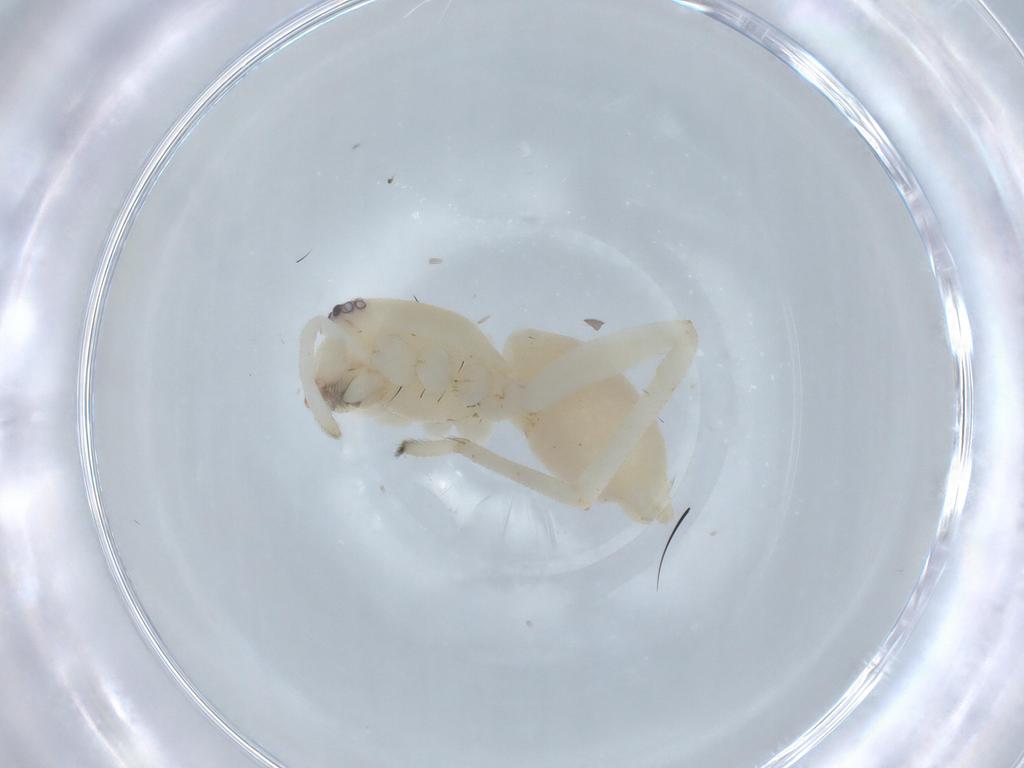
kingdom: Animalia
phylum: Arthropoda
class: Arachnida
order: Araneae
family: Cheiracanthiidae
